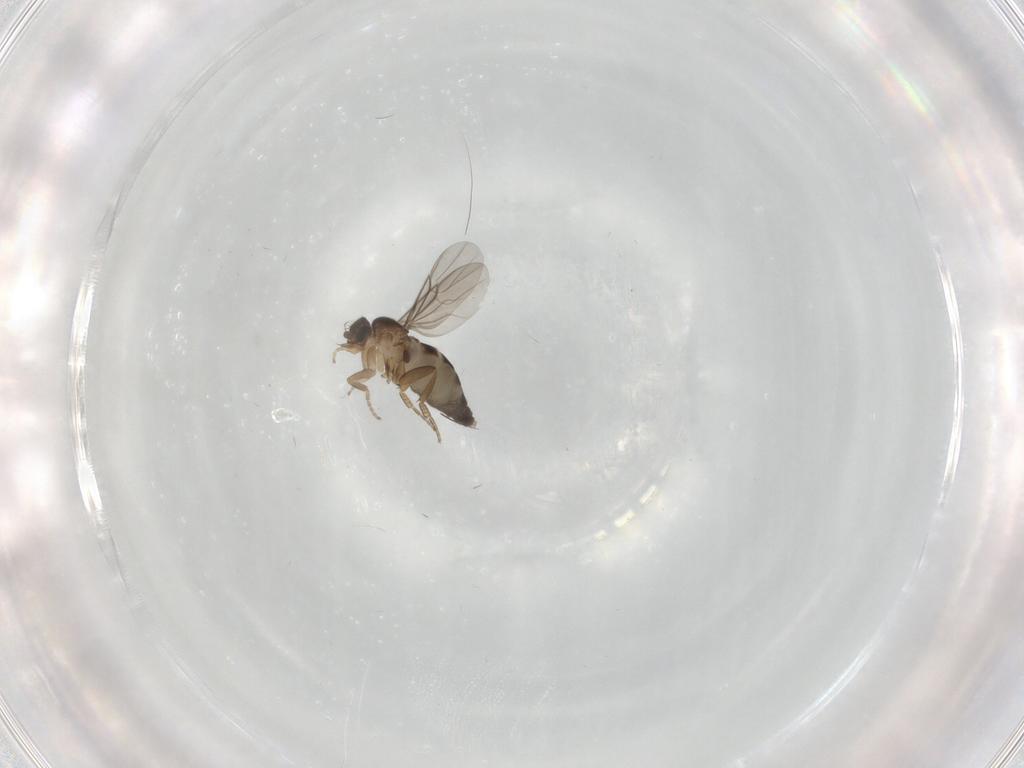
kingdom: Animalia
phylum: Arthropoda
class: Insecta
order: Diptera
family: Phoridae
